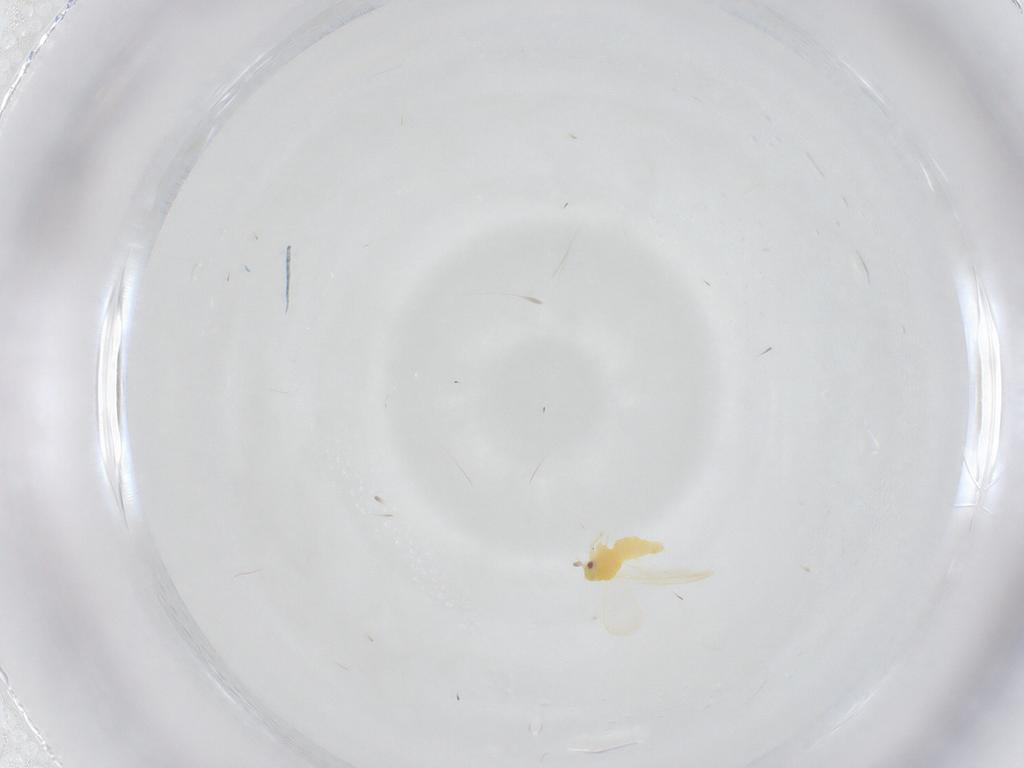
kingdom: Animalia
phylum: Arthropoda
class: Insecta
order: Hemiptera
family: Aleyrodidae
